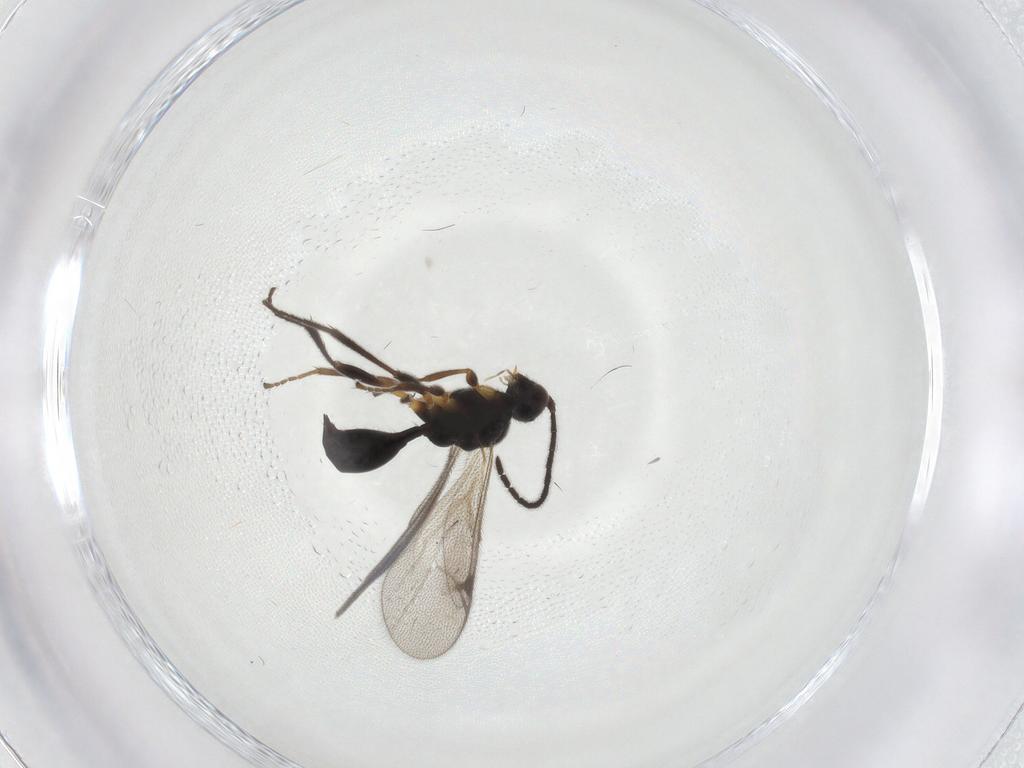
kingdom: Animalia
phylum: Arthropoda
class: Insecta
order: Hymenoptera
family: Proctotrupidae
